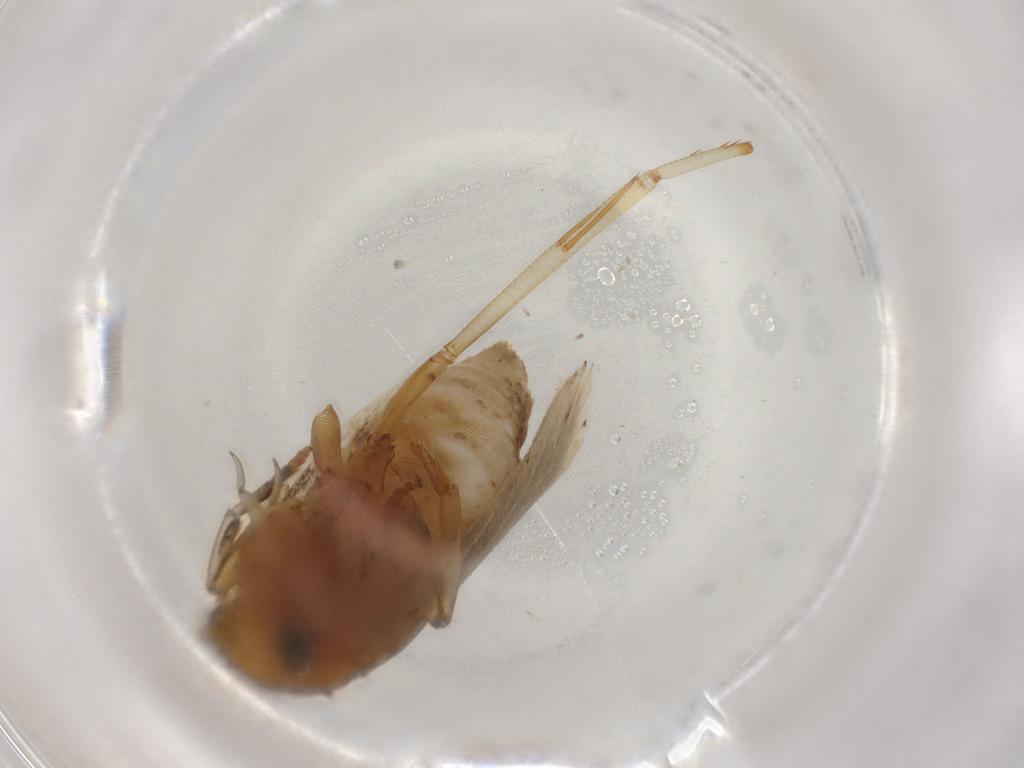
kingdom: Animalia
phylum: Arthropoda
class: Insecta
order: Lepidoptera
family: Gelechiidae
